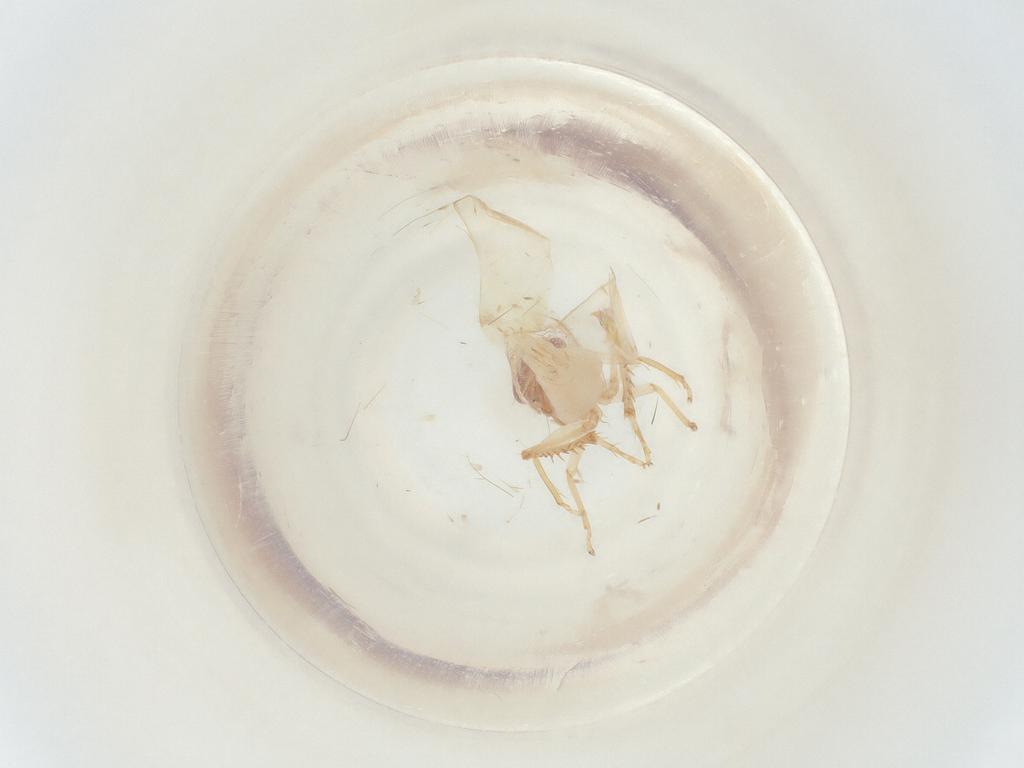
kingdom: Animalia
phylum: Arthropoda
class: Insecta
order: Hemiptera
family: Cicadellidae
